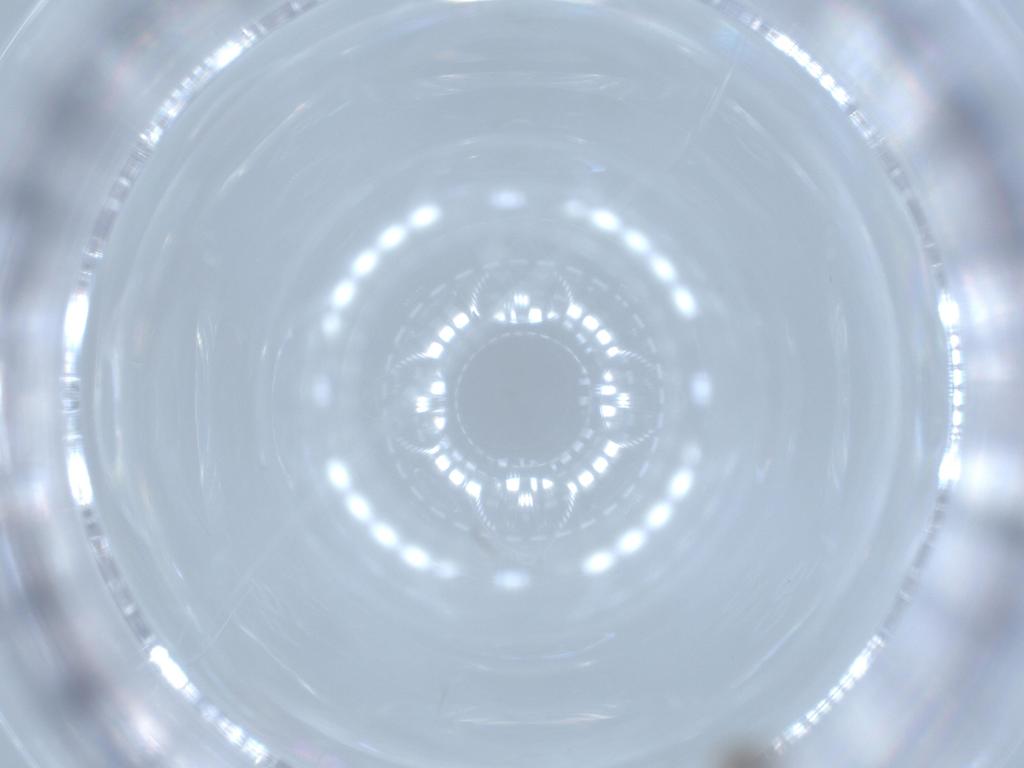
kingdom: Animalia
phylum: Arthropoda
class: Insecta
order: Diptera
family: Cecidomyiidae
